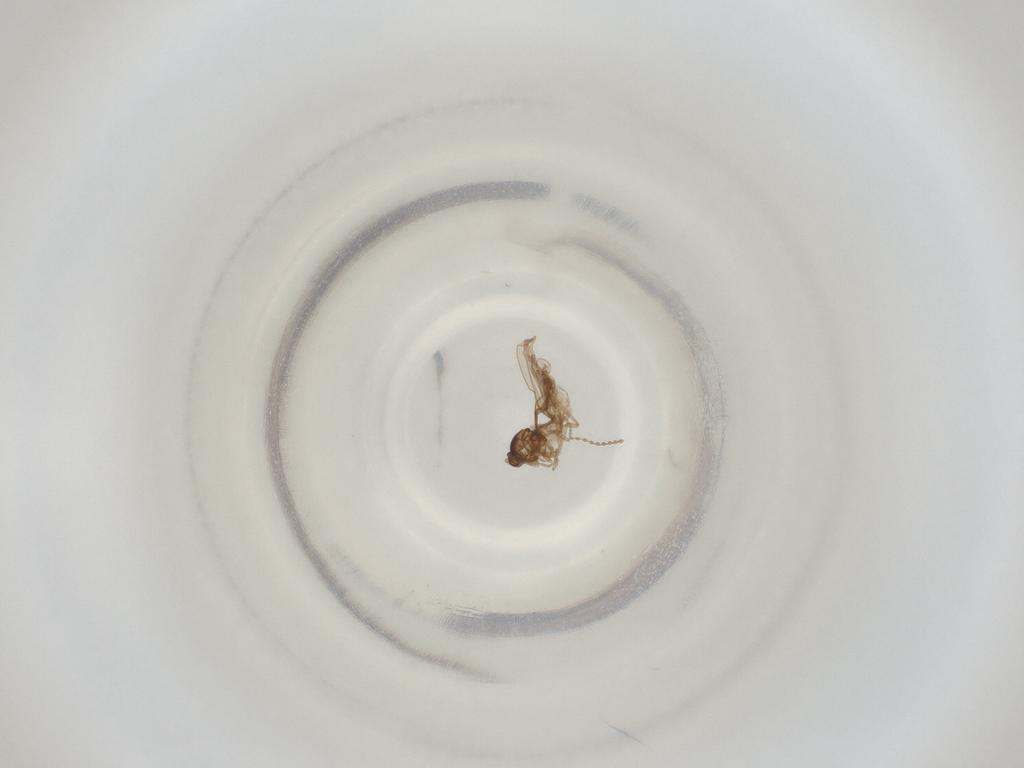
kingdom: Animalia
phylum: Arthropoda
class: Insecta
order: Diptera
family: Cecidomyiidae
